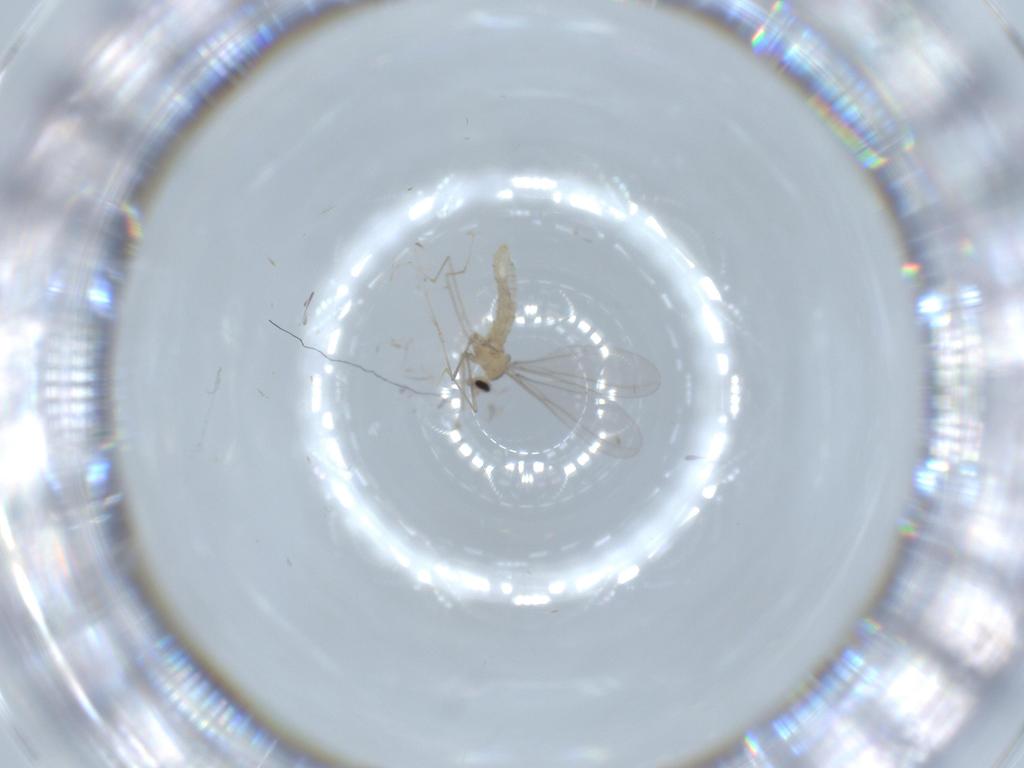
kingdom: Animalia
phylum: Arthropoda
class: Insecta
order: Diptera
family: Cecidomyiidae
